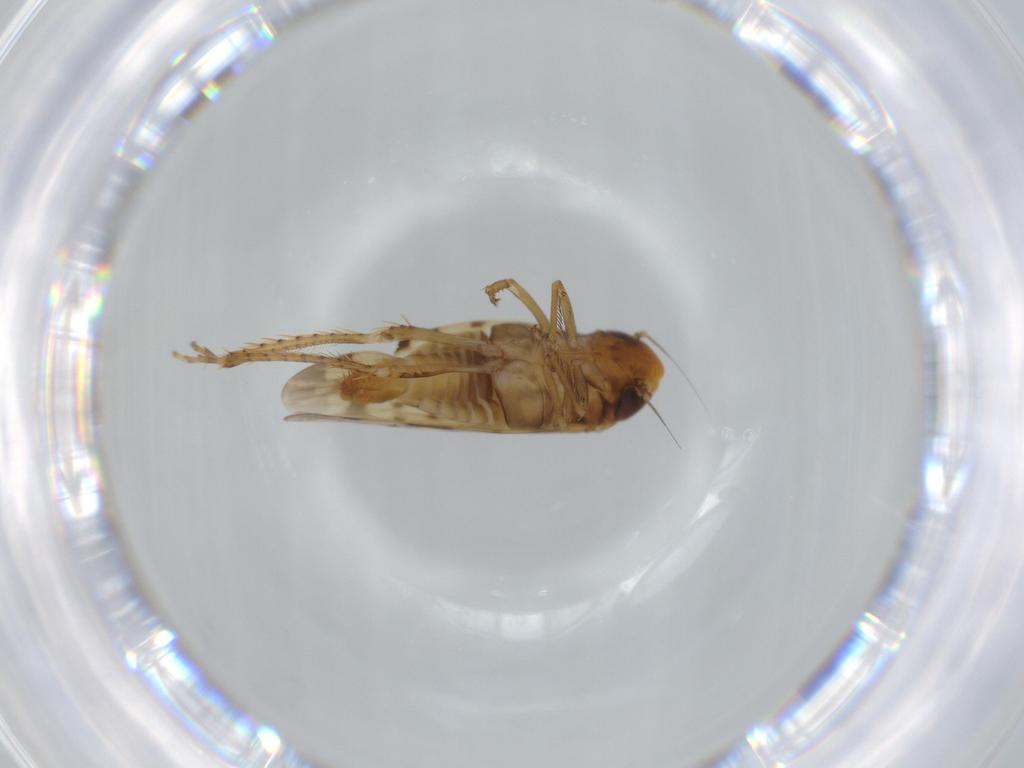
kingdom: Animalia
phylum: Arthropoda
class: Insecta
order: Hemiptera
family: Cicadellidae
